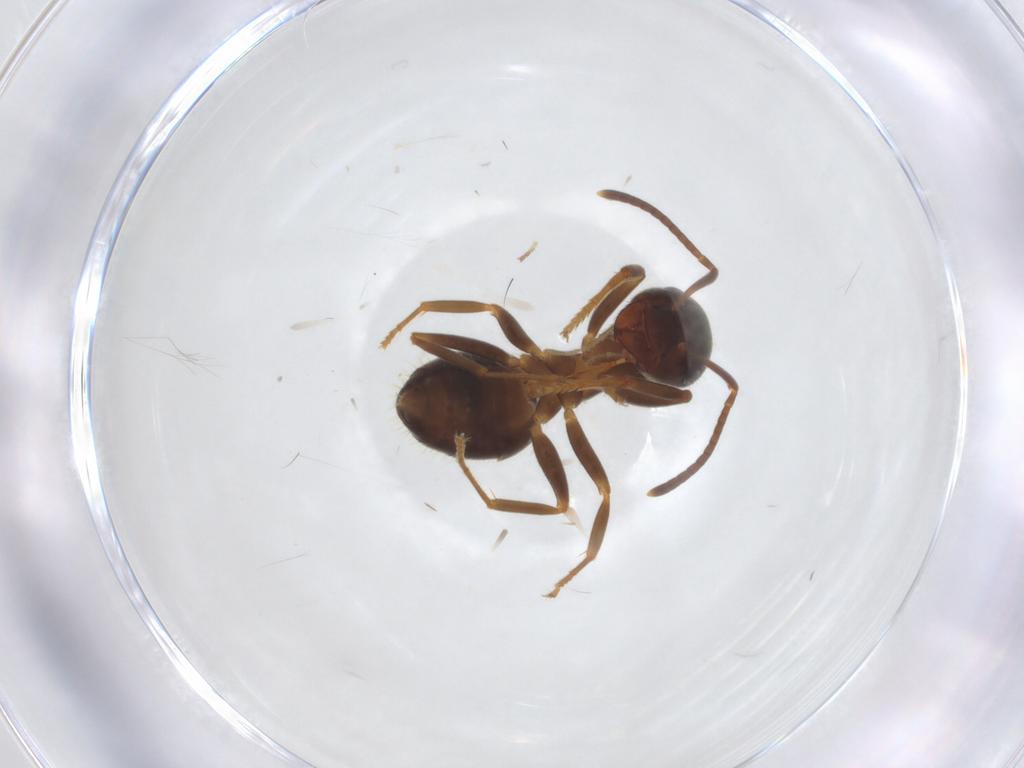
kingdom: Animalia
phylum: Arthropoda
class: Insecta
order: Hymenoptera
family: Formicidae
